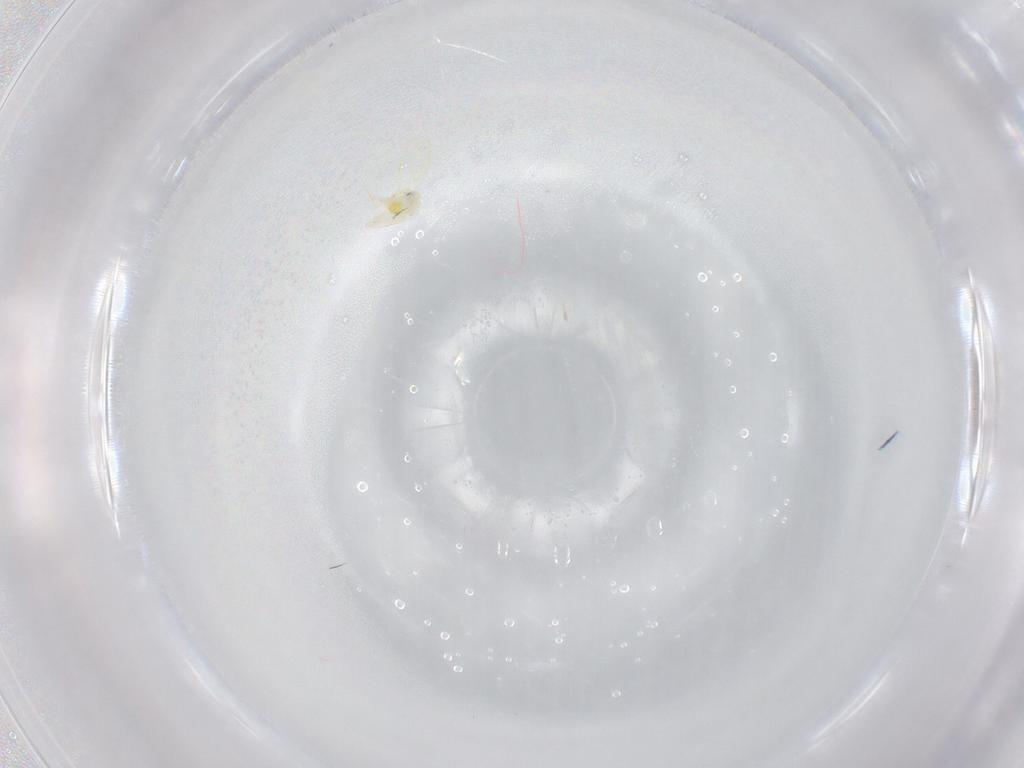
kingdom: Animalia
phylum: Arthropoda
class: Insecta
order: Hemiptera
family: Aleyrodidae
